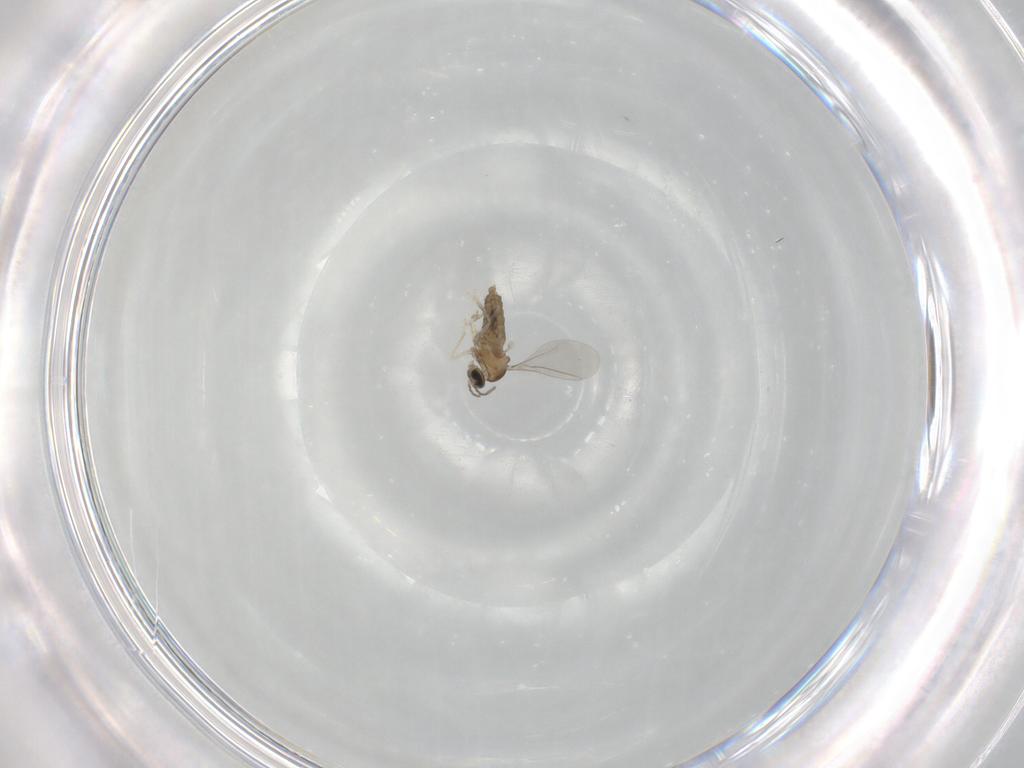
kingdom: Animalia
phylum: Arthropoda
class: Insecta
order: Diptera
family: Cecidomyiidae
